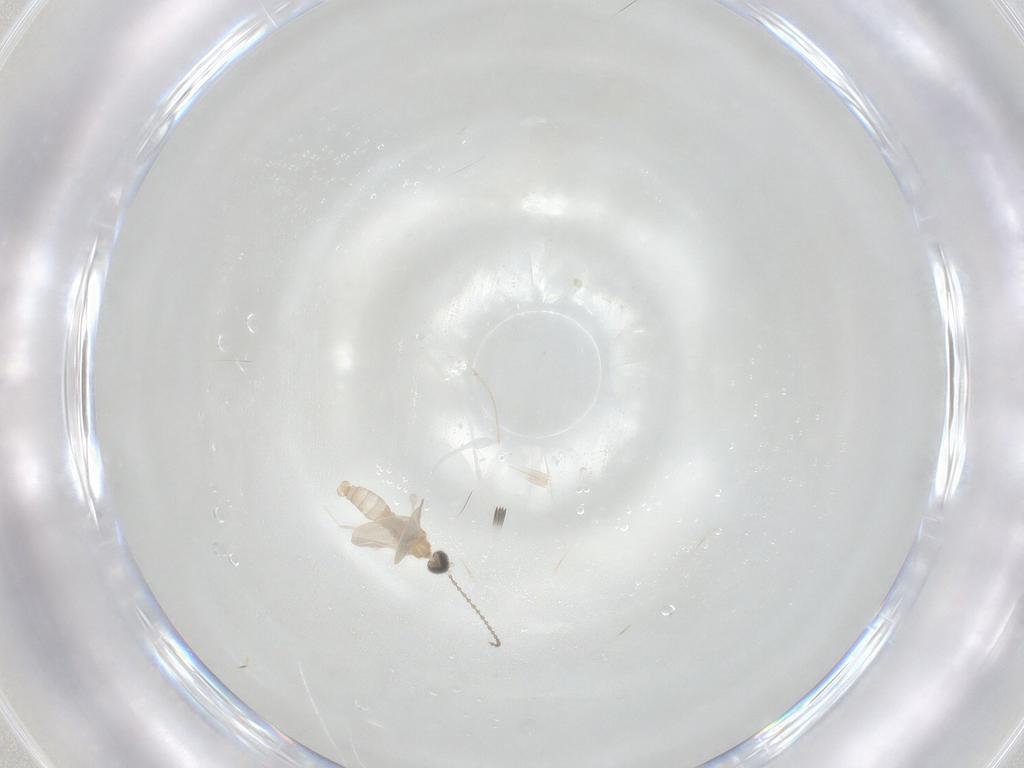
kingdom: Animalia
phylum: Arthropoda
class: Insecta
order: Diptera
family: Cecidomyiidae
